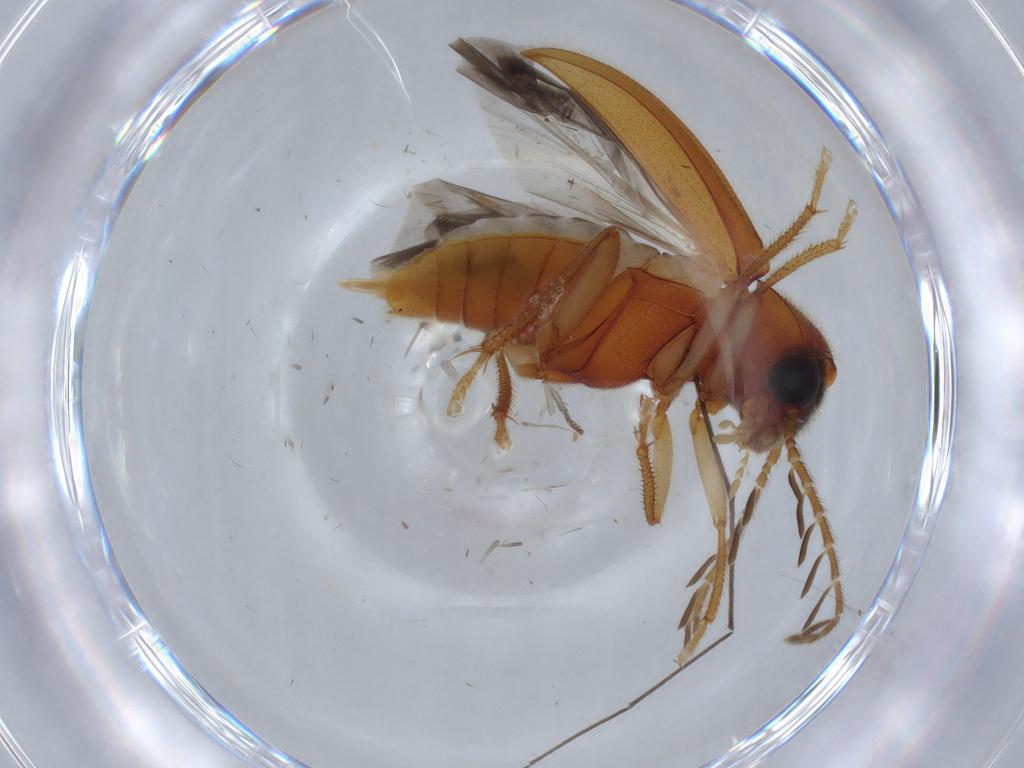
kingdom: Animalia
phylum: Arthropoda
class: Insecta
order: Coleoptera
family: Ptilodactylidae
